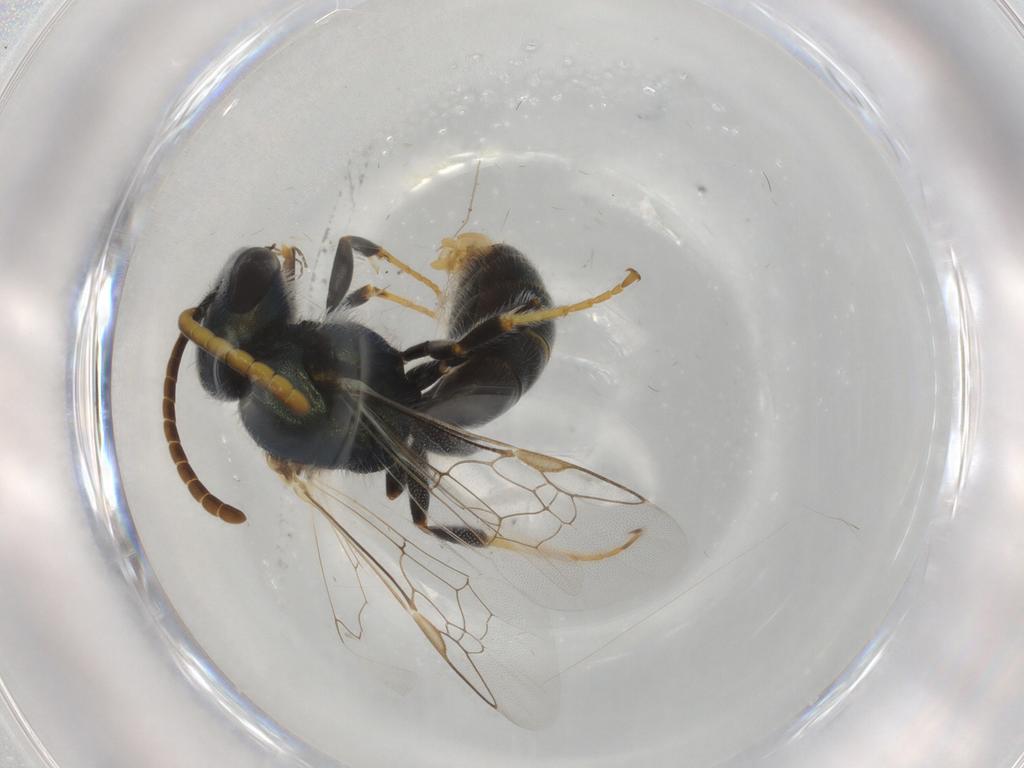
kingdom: Animalia
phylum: Arthropoda
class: Insecta
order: Hymenoptera
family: Halictidae
